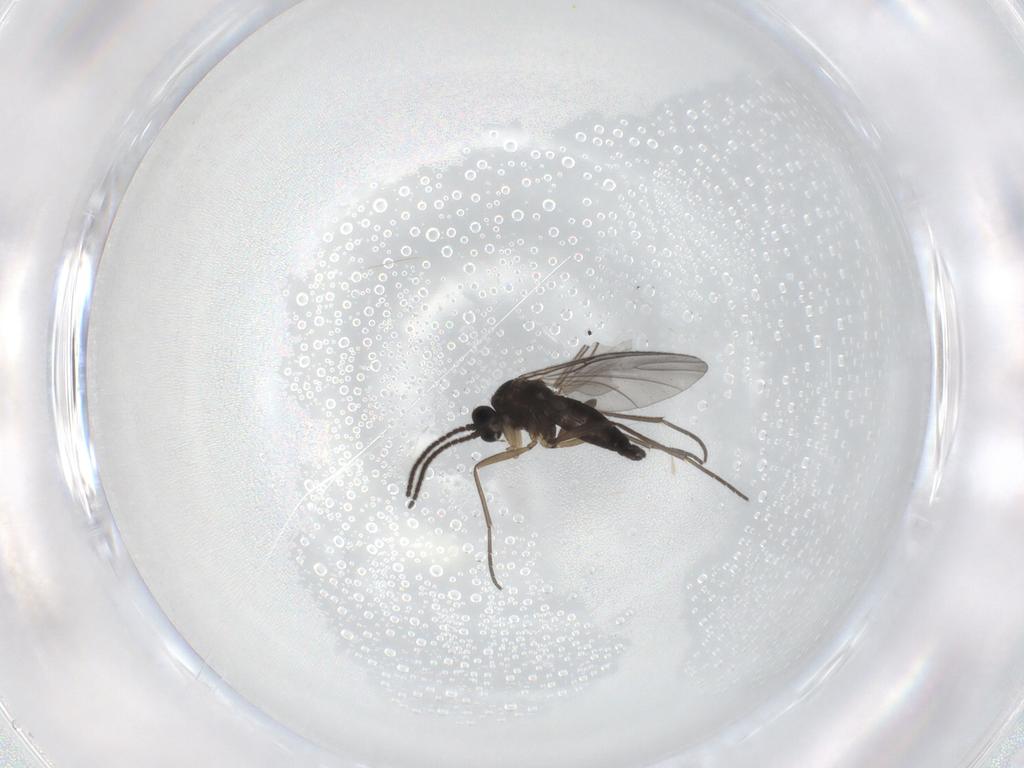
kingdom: Animalia
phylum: Arthropoda
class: Insecta
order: Diptera
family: Sciaridae
